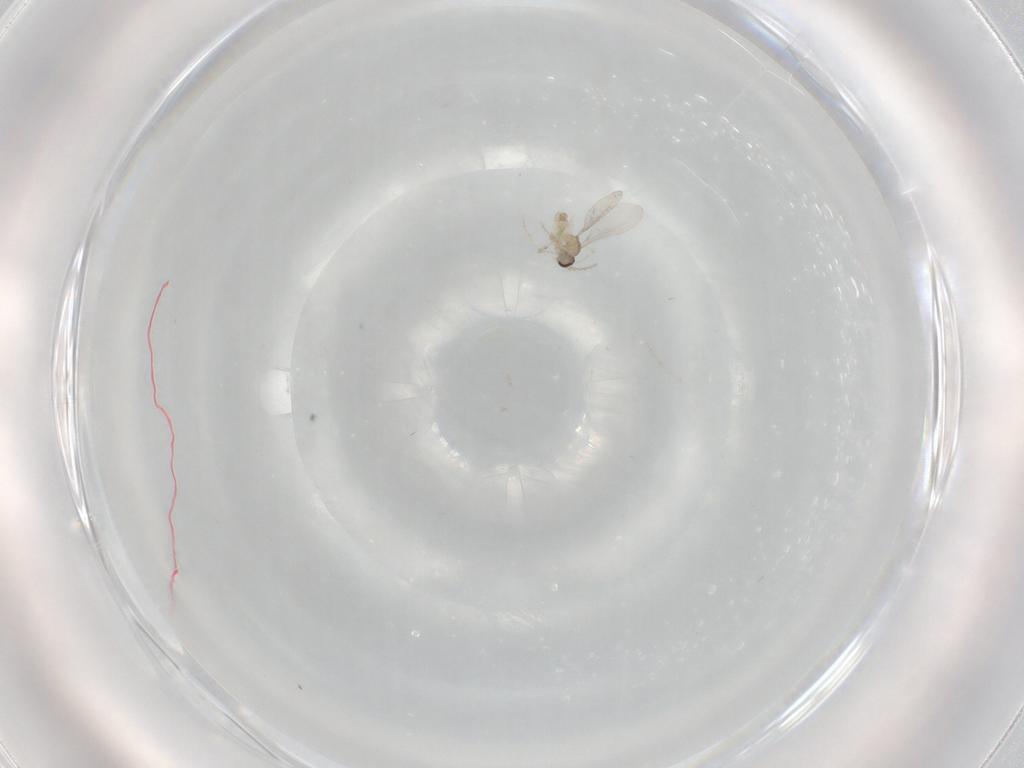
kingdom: Animalia
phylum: Arthropoda
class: Insecta
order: Diptera
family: Cecidomyiidae
